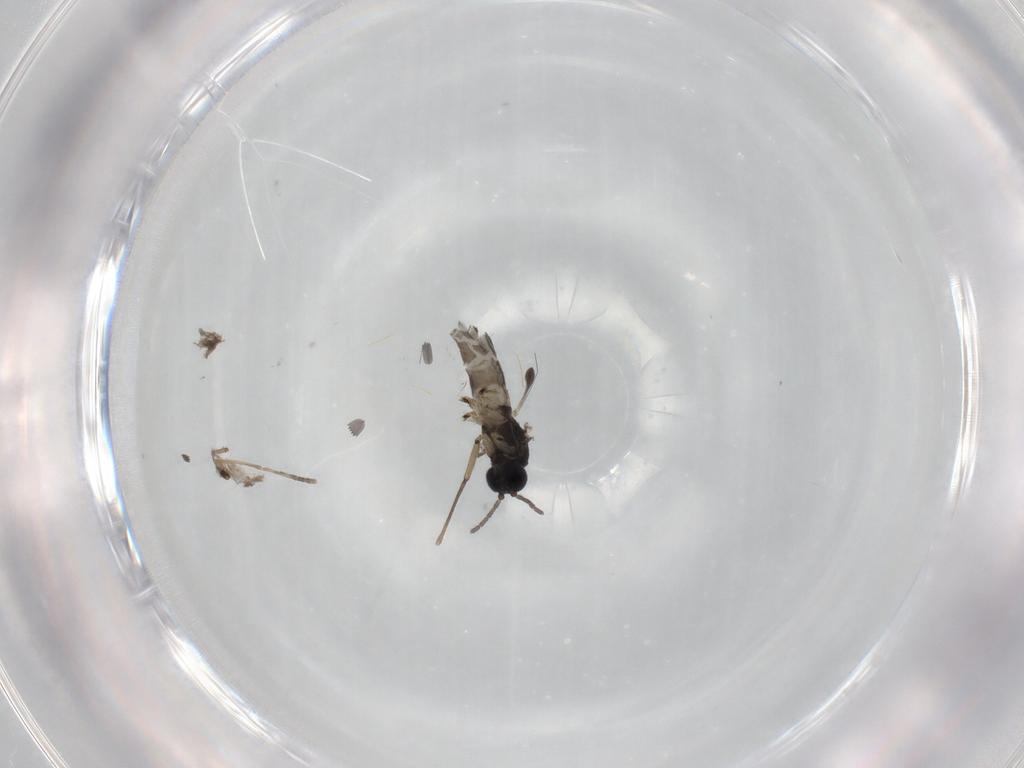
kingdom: Animalia
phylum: Arthropoda
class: Insecta
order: Diptera
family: Sciaridae
